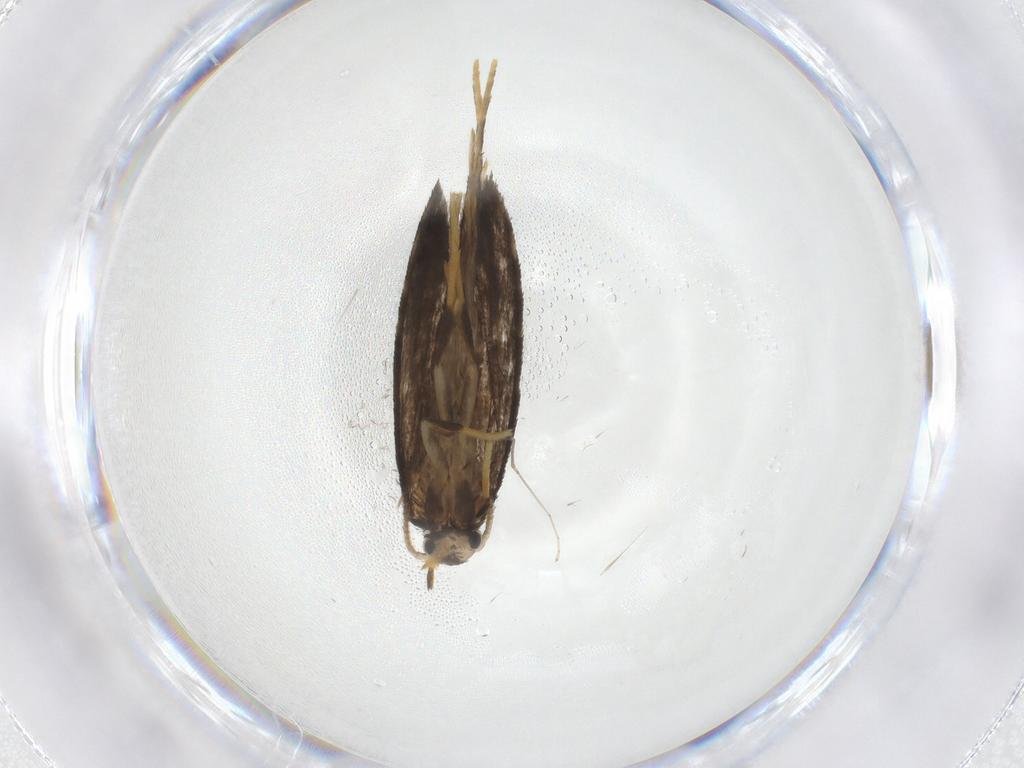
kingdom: Animalia
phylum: Arthropoda
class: Insecta
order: Lepidoptera
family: Psychidae
